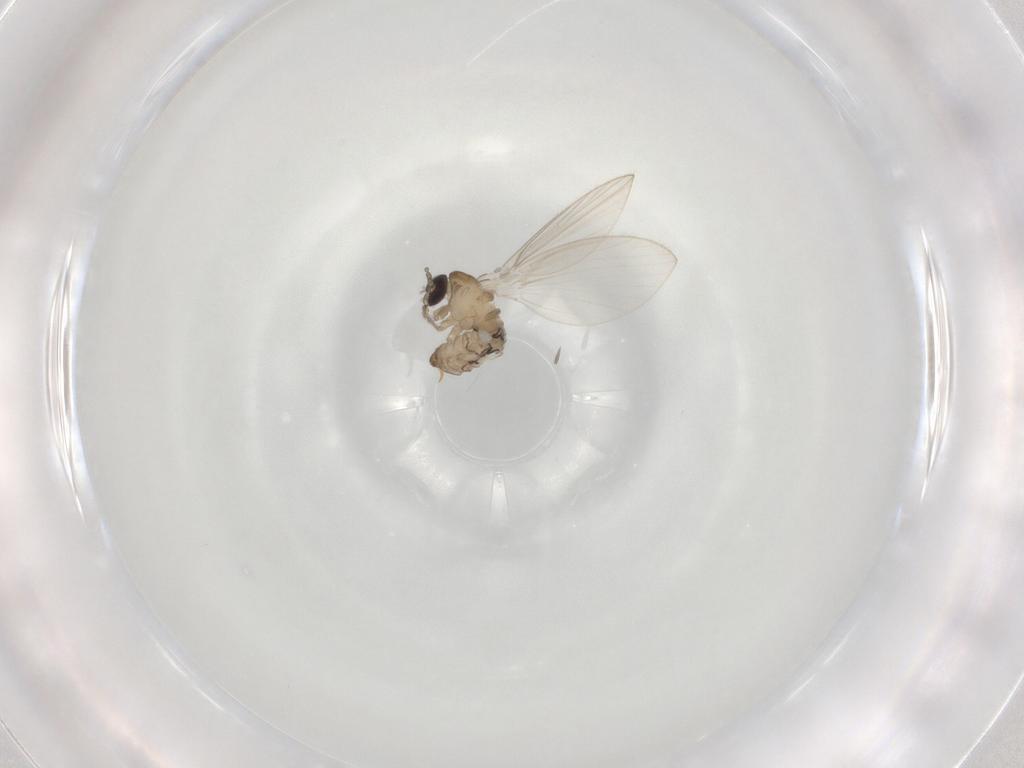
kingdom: Animalia
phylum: Arthropoda
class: Insecta
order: Diptera
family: Psychodidae
